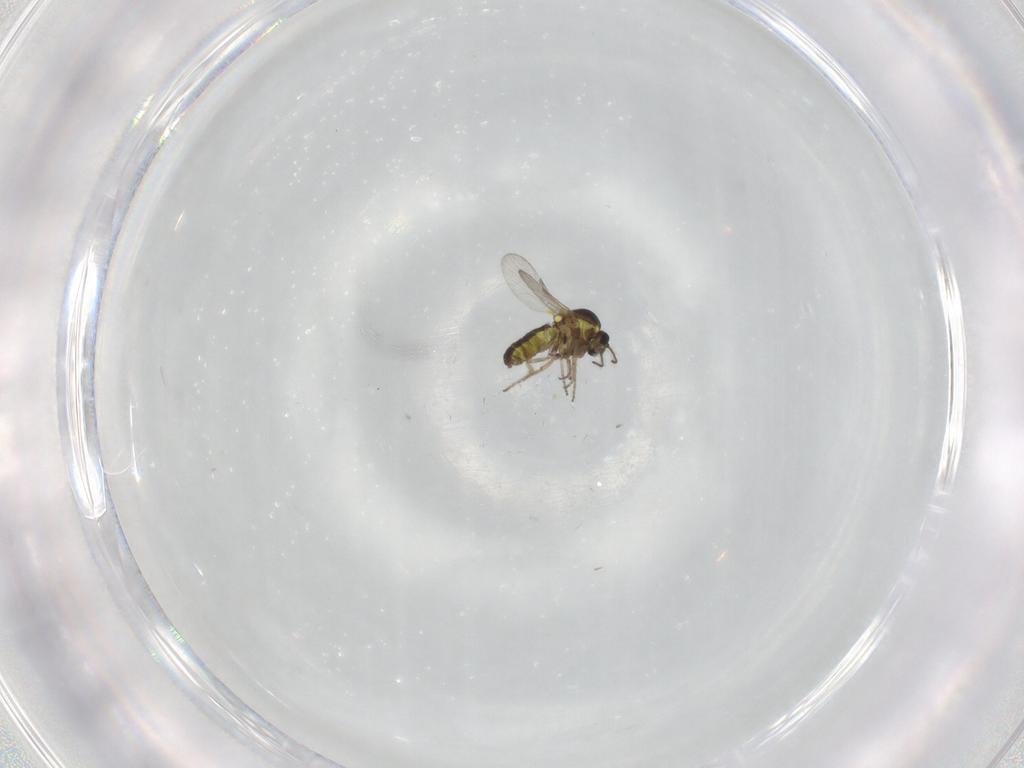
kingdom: Animalia
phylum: Arthropoda
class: Insecta
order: Diptera
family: Ceratopogonidae
